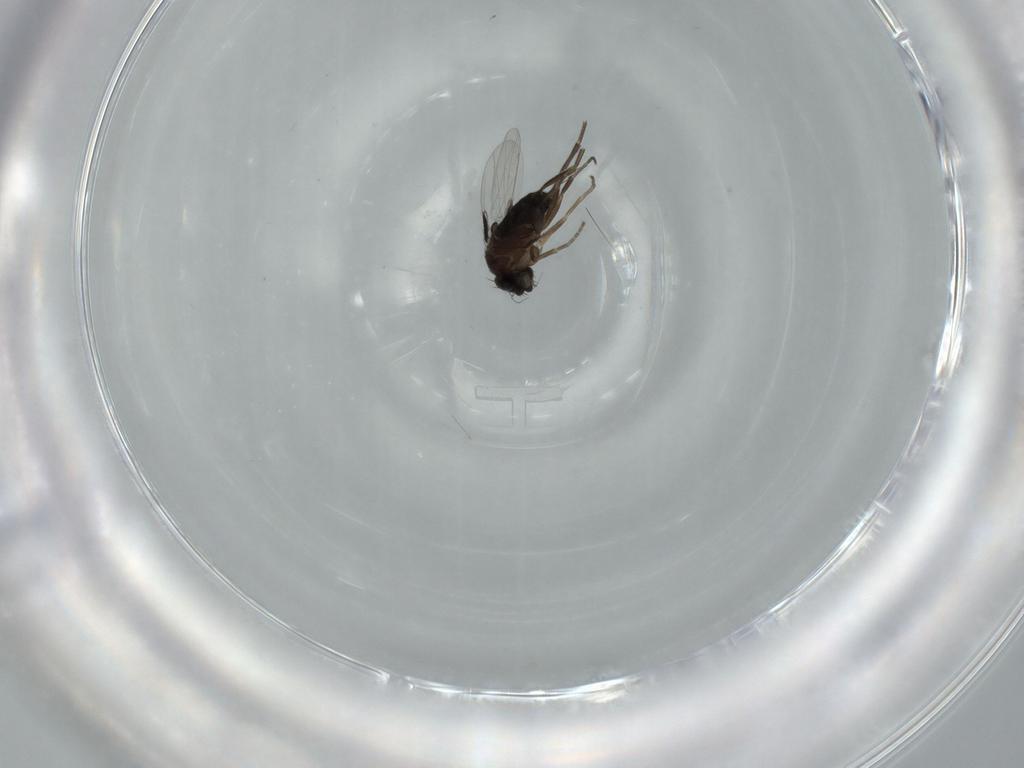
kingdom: Animalia
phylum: Arthropoda
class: Insecta
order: Diptera
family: Phoridae
